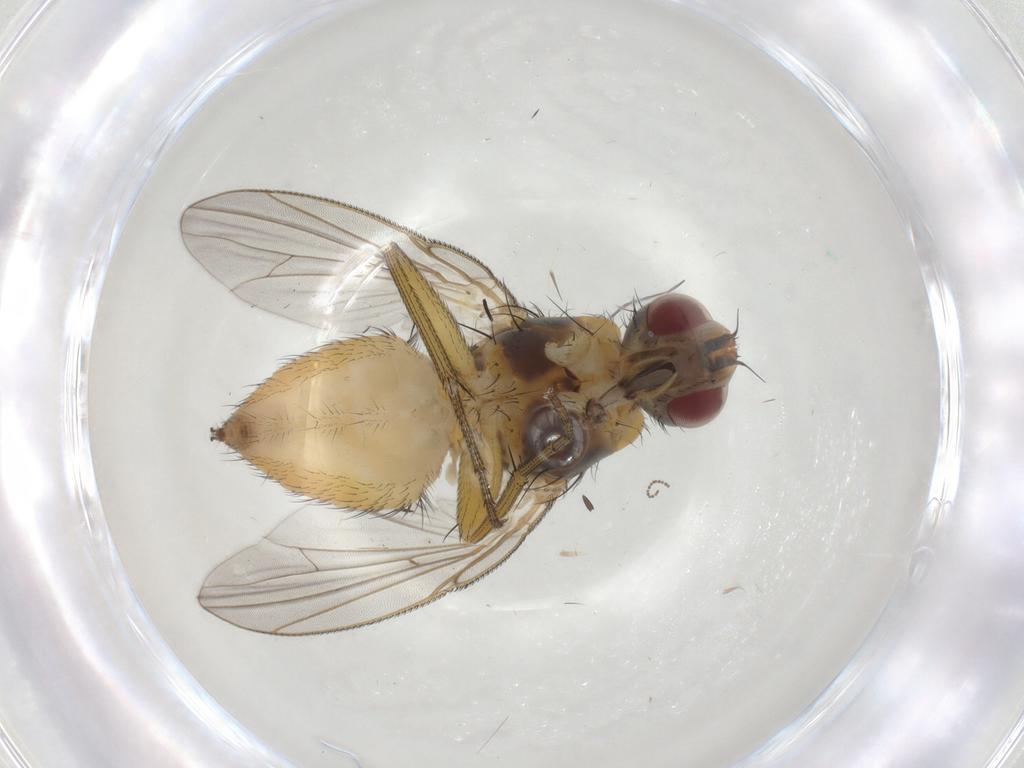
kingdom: Animalia
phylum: Arthropoda
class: Insecta
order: Diptera
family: Muscidae
